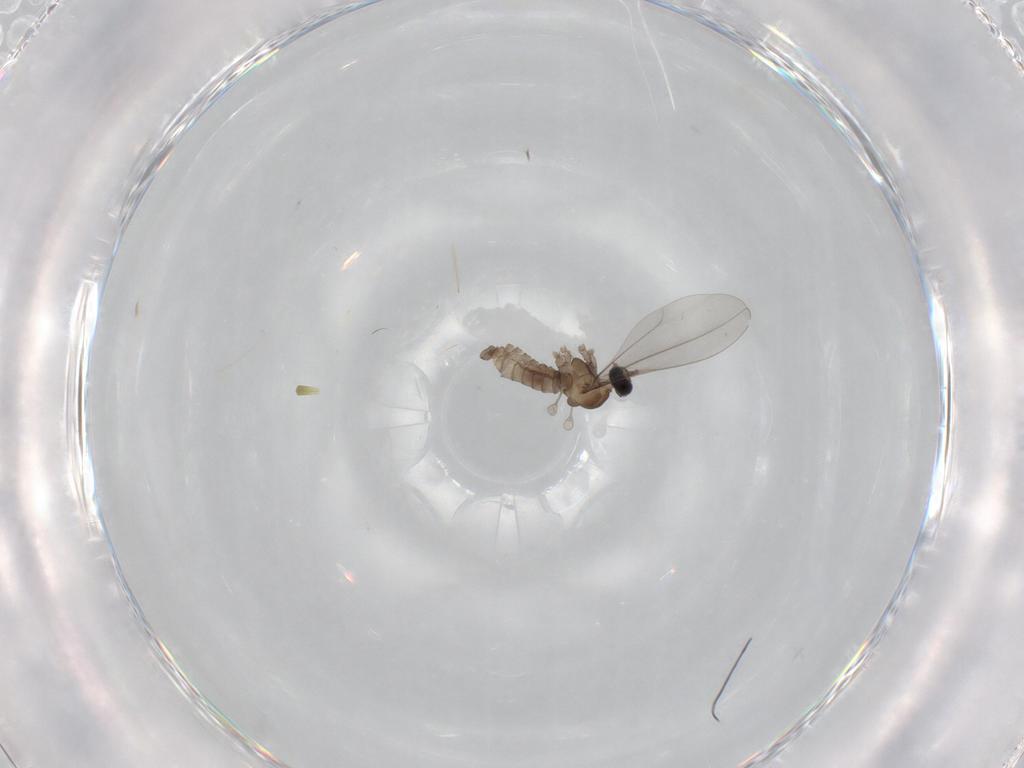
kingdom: Animalia
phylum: Arthropoda
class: Insecta
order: Diptera
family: Cecidomyiidae
